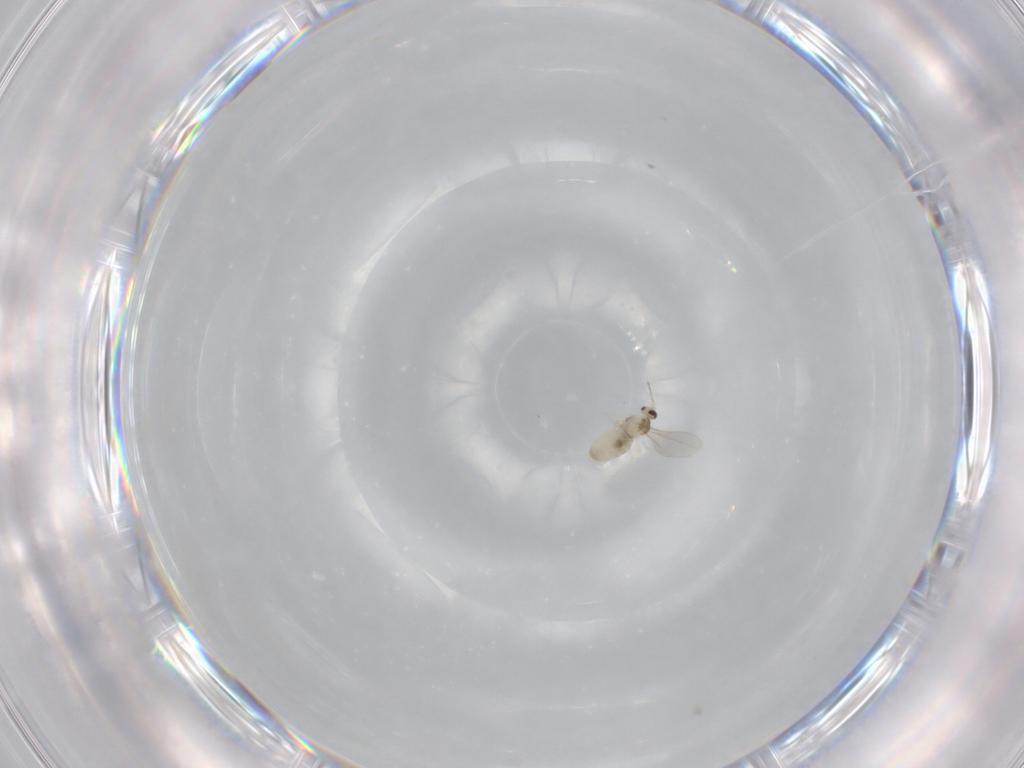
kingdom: Animalia
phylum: Arthropoda
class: Insecta
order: Diptera
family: Cecidomyiidae
